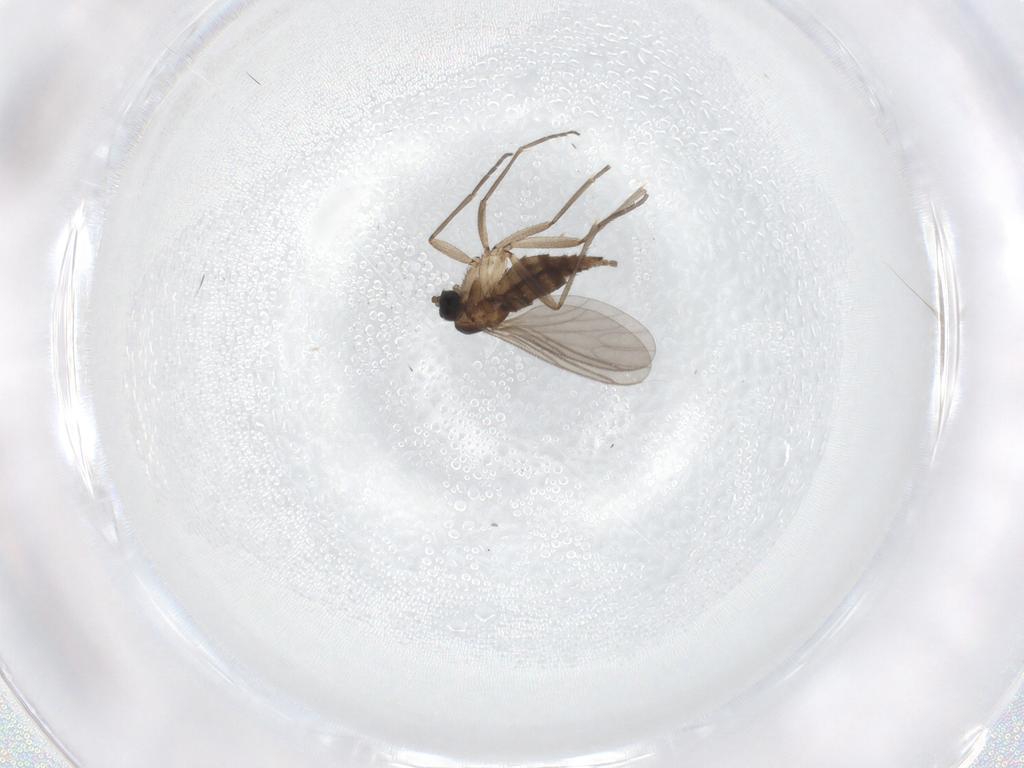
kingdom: Animalia
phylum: Arthropoda
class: Insecta
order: Diptera
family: Sciaridae
